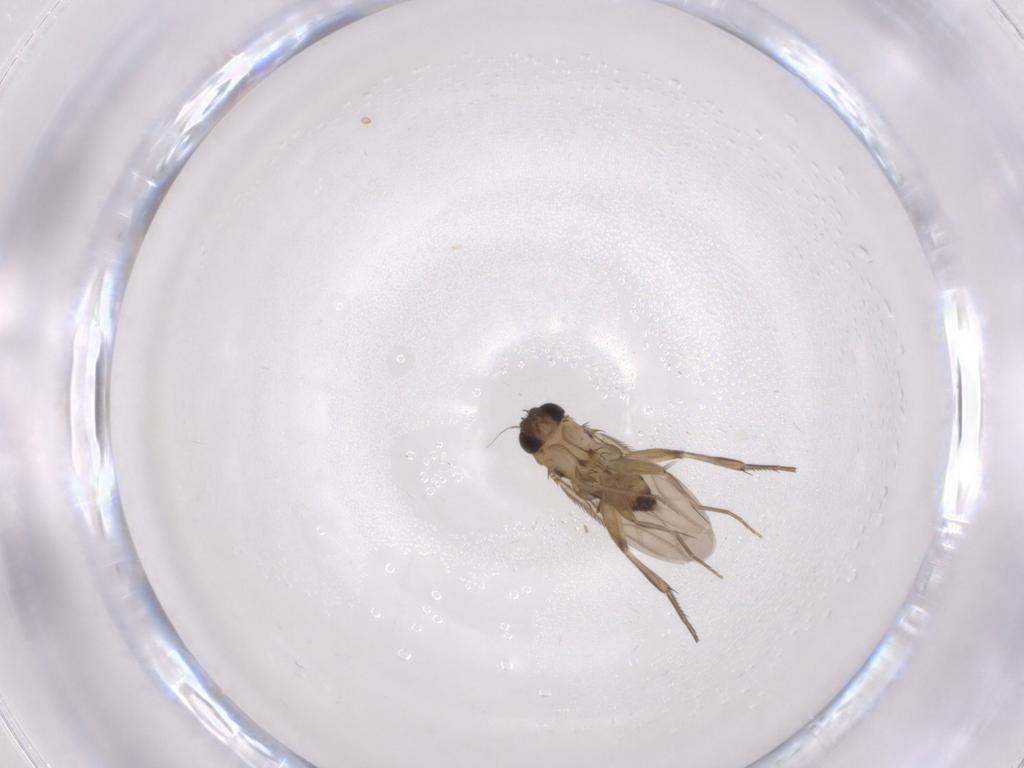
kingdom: Animalia
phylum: Arthropoda
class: Insecta
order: Diptera
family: Phoridae
